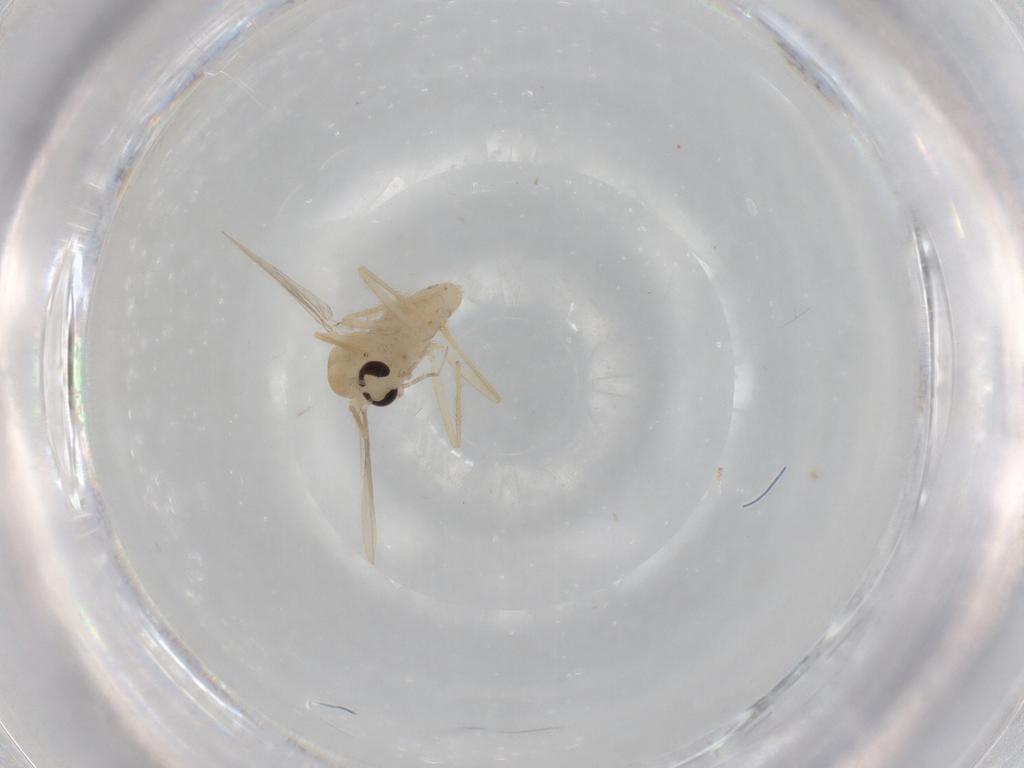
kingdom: Animalia
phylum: Arthropoda
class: Insecta
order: Diptera
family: Chironomidae
